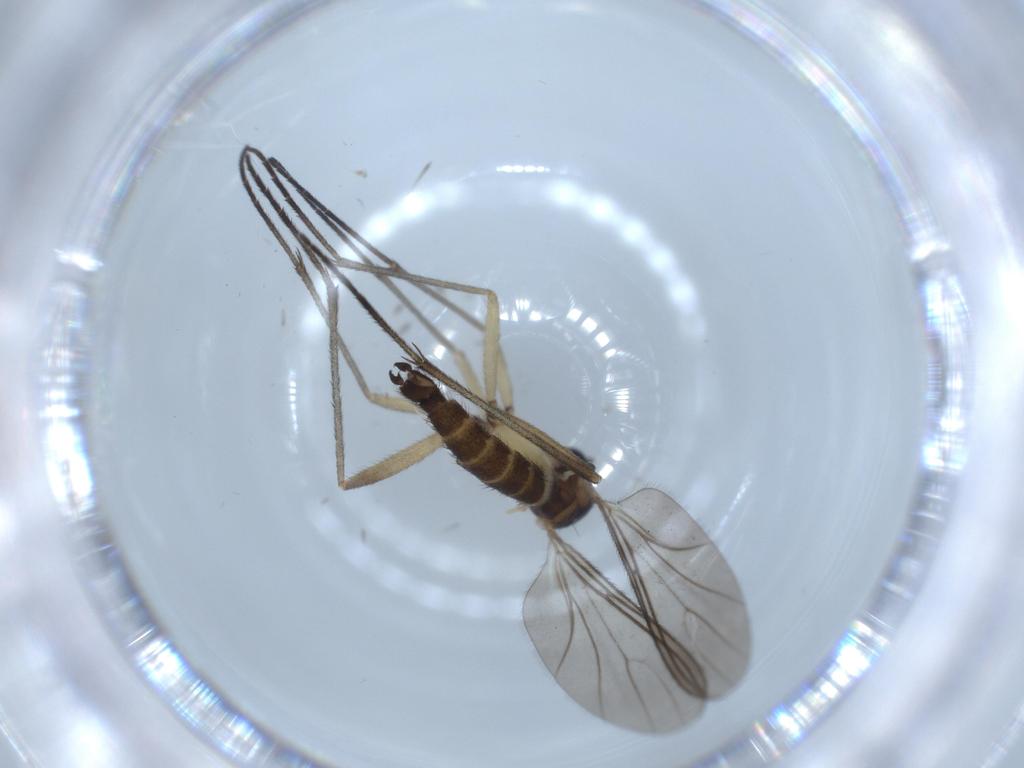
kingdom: Animalia
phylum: Arthropoda
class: Insecta
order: Diptera
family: Sciaridae
